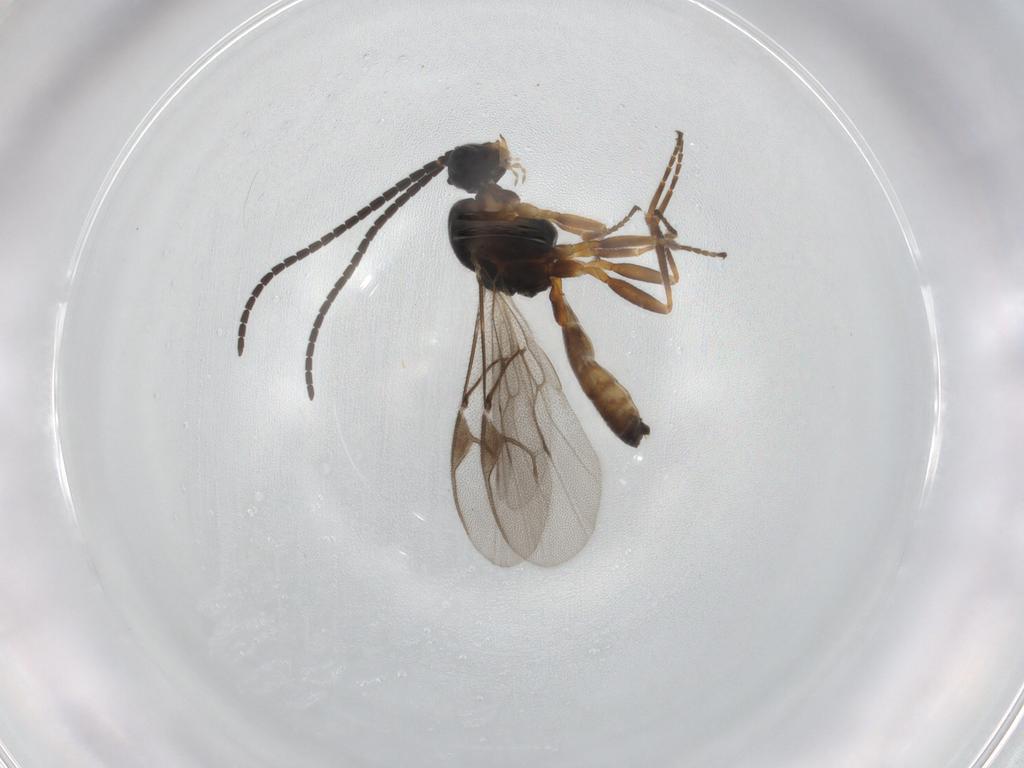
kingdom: Animalia
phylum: Arthropoda
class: Insecta
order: Hymenoptera
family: Braconidae
